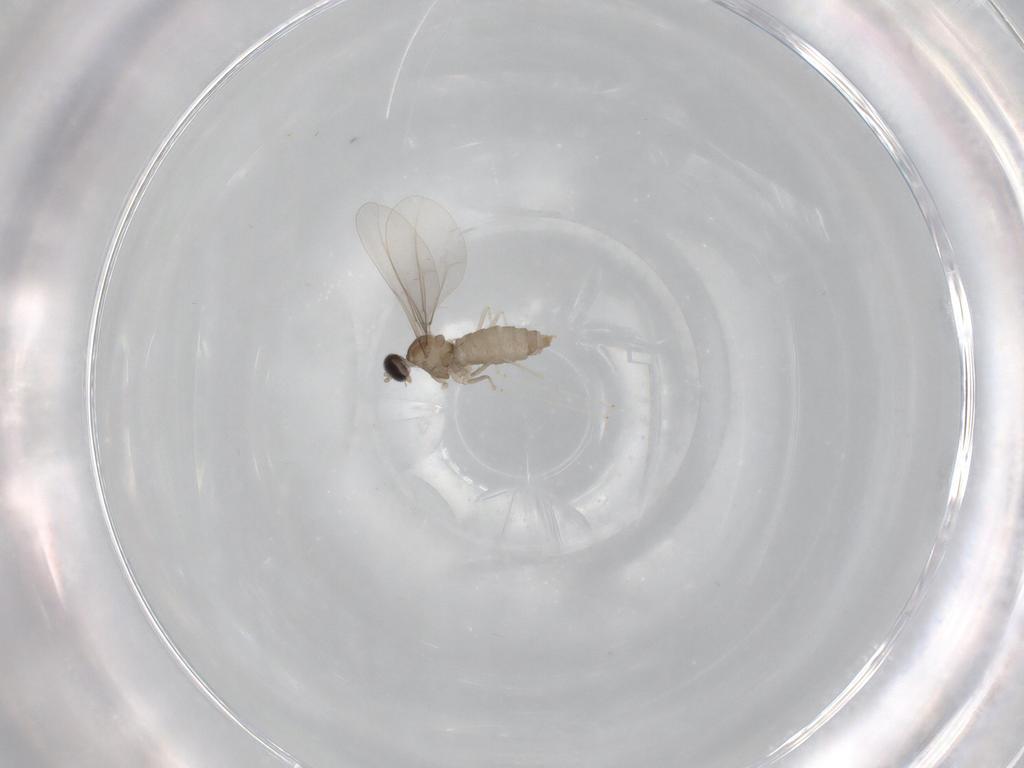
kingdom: Animalia
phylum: Arthropoda
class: Insecta
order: Diptera
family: Cecidomyiidae
